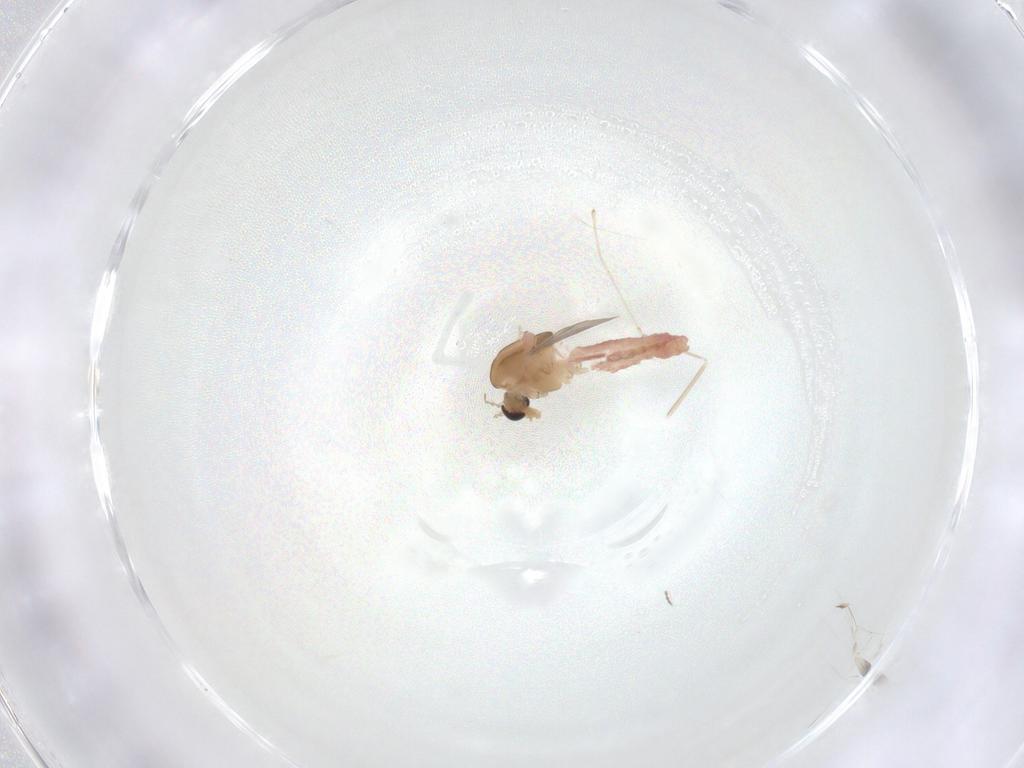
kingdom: Animalia
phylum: Arthropoda
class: Insecta
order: Diptera
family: Chironomidae
